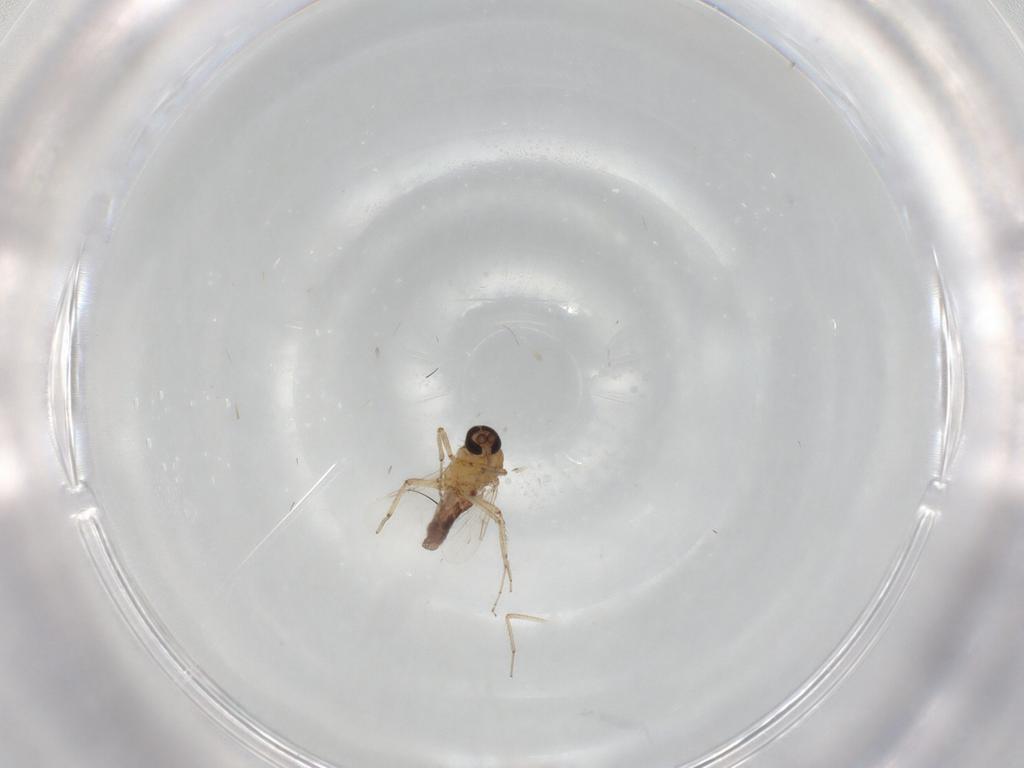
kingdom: Animalia
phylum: Arthropoda
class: Insecta
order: Diptera
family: Ceratopogonidae
